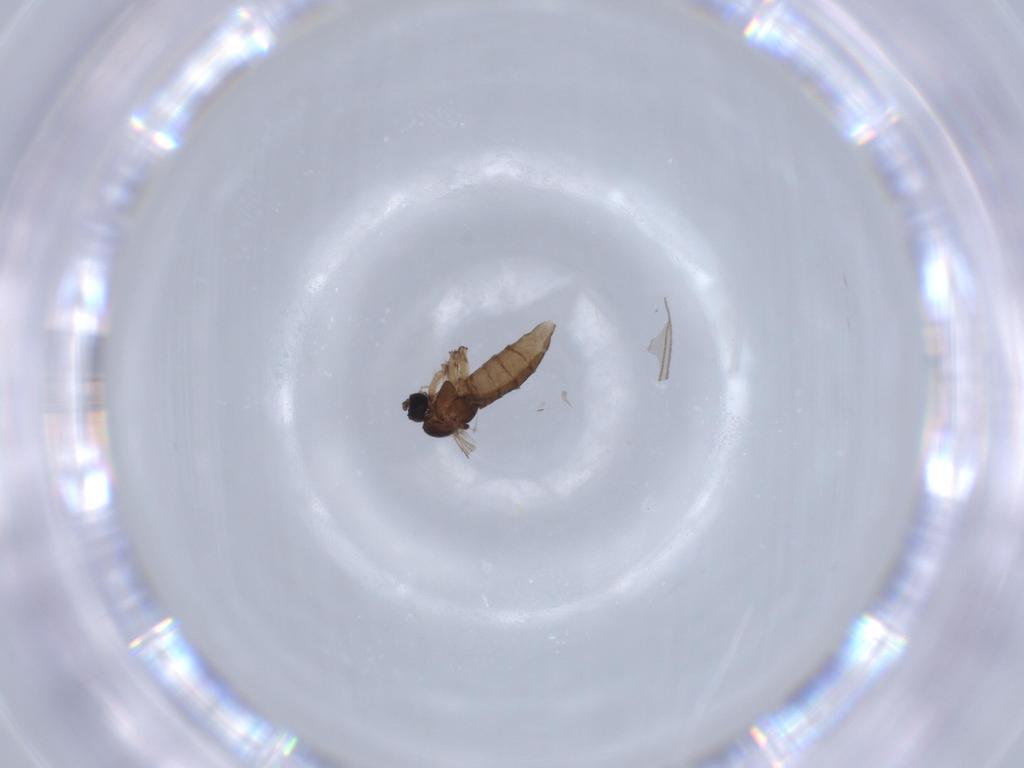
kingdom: Animalia
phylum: Arthropoda
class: Insecta
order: Diptera
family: Sciaridae
